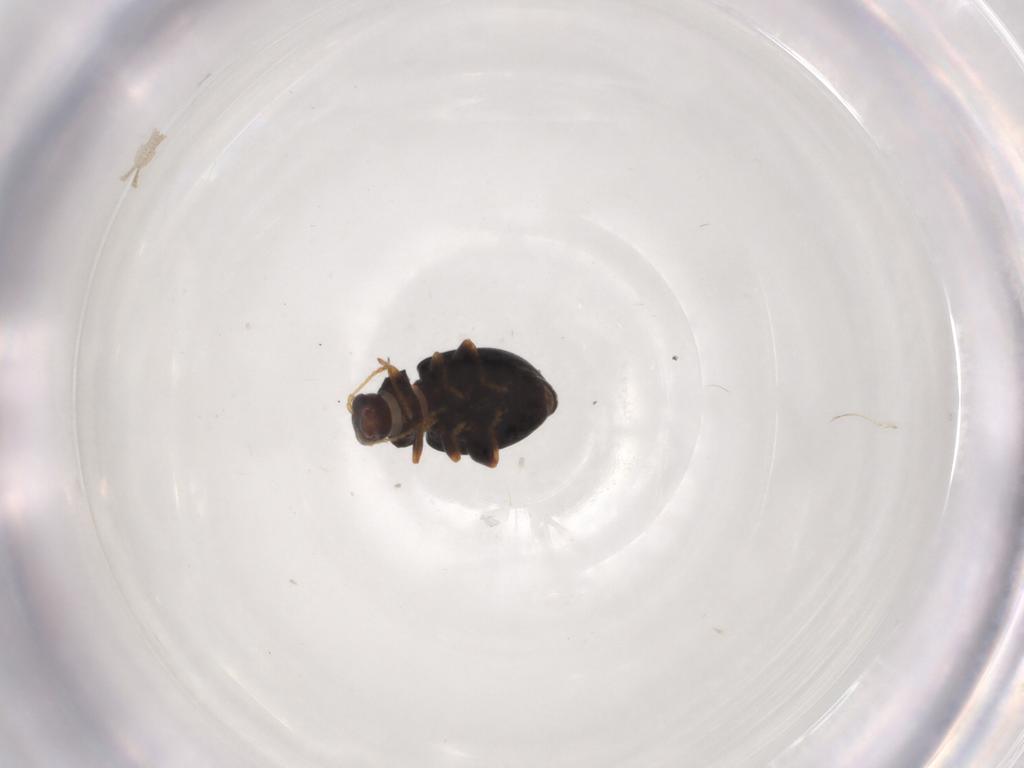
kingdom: Animalia
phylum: Arthropoda
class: Insecta
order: Coleoptera
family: Chrysomelidae
